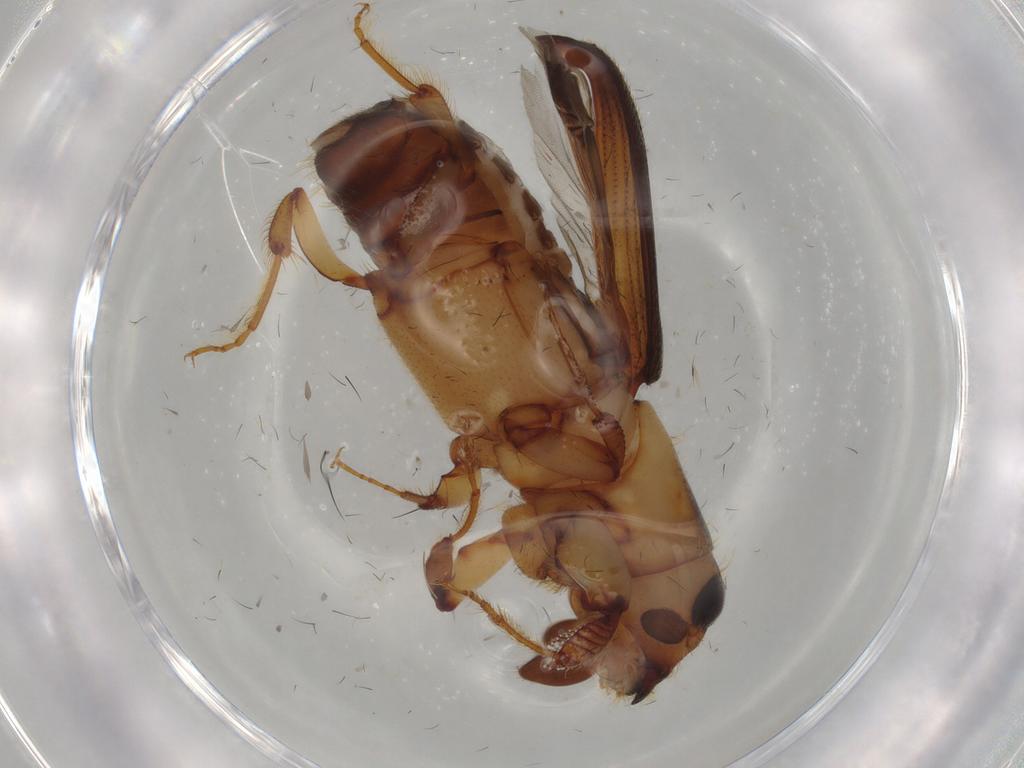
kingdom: Animalia
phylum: Arthropoda
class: Insecta
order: Coleoptera
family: Curculionidae
